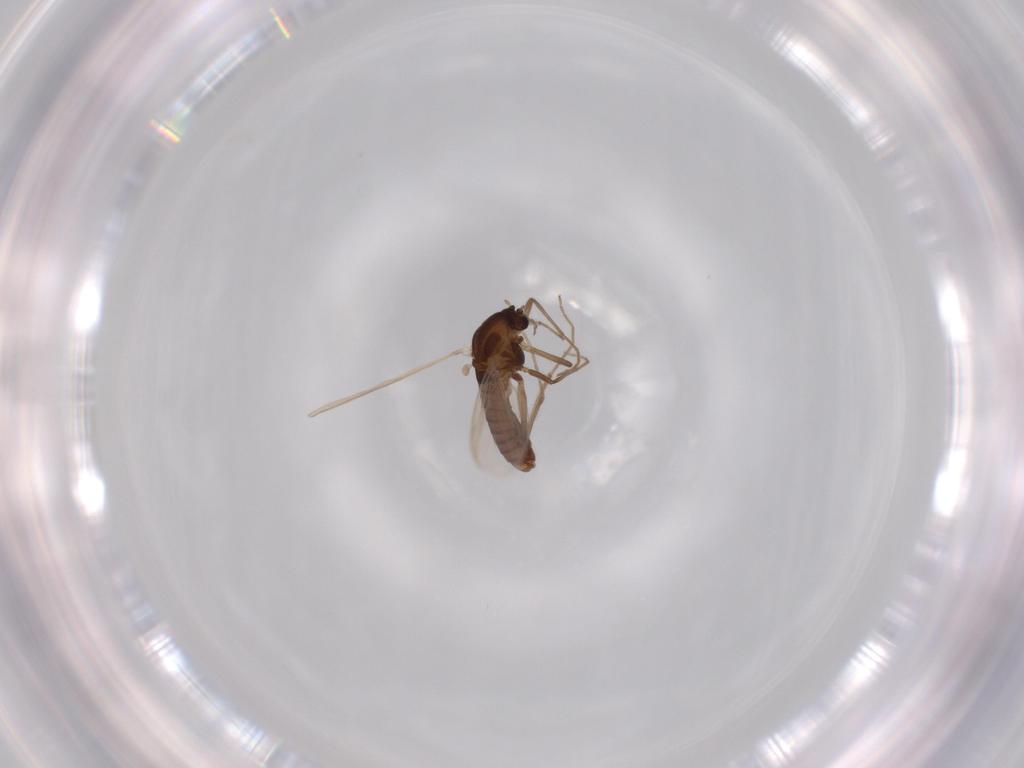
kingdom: Animalia
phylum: Arthropoda
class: Insecta
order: Diptera
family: Chironomidae
